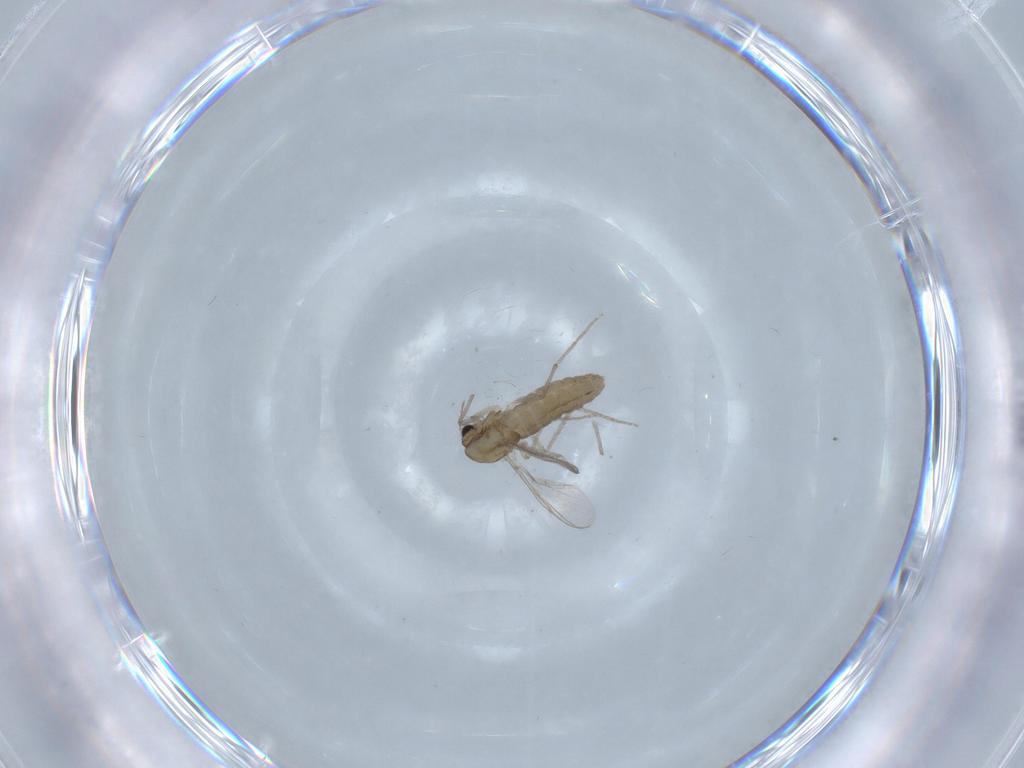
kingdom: Animalia
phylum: Arthropoda
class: Insecta
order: Diptera
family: Chironomidae
